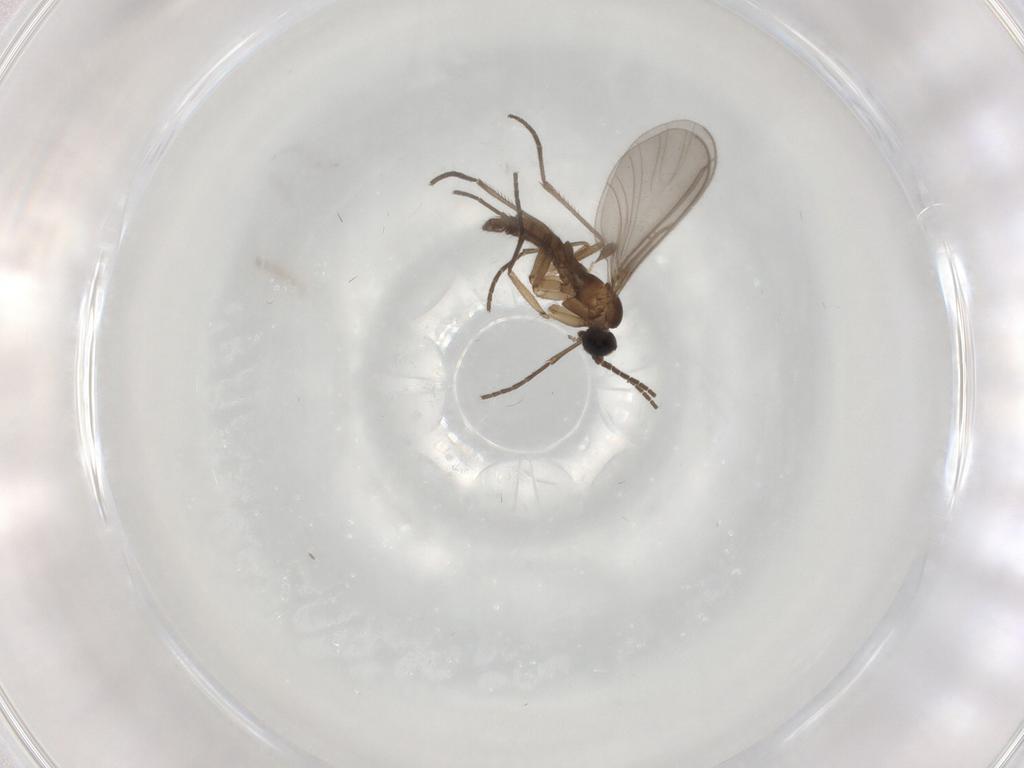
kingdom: Animalia
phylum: Arthropoda
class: Insecta
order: Diptera
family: Sciaridae
